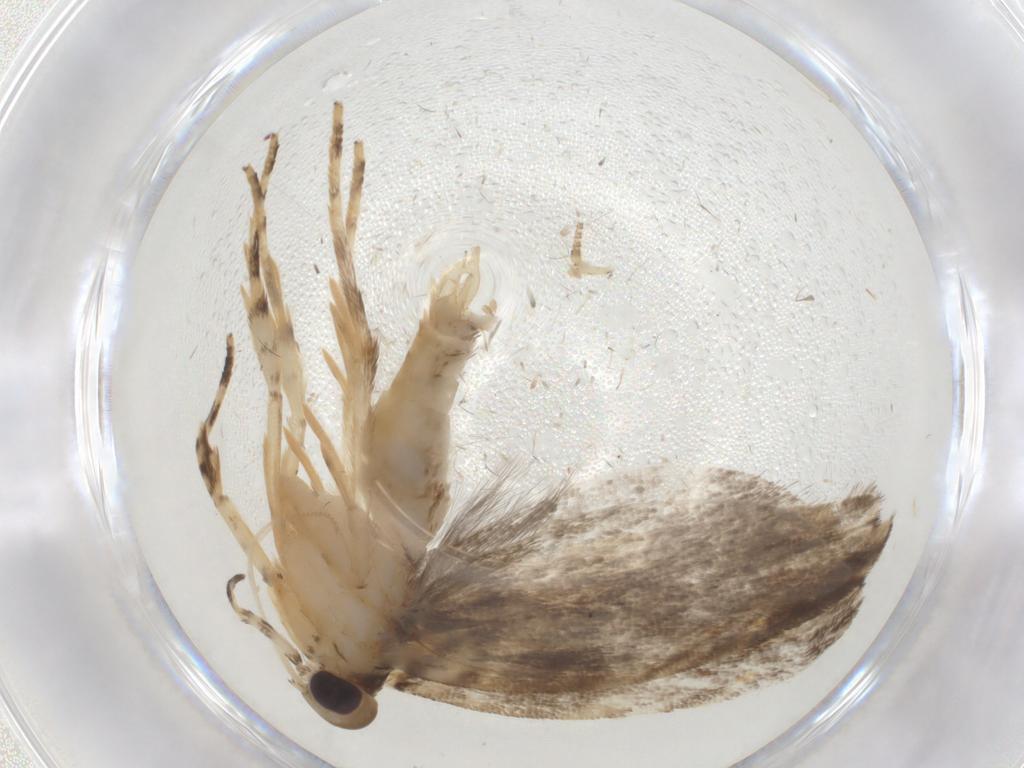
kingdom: Animalia
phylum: Arthropoda
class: Insecta
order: Lepidoptera
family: Gelechiidae
